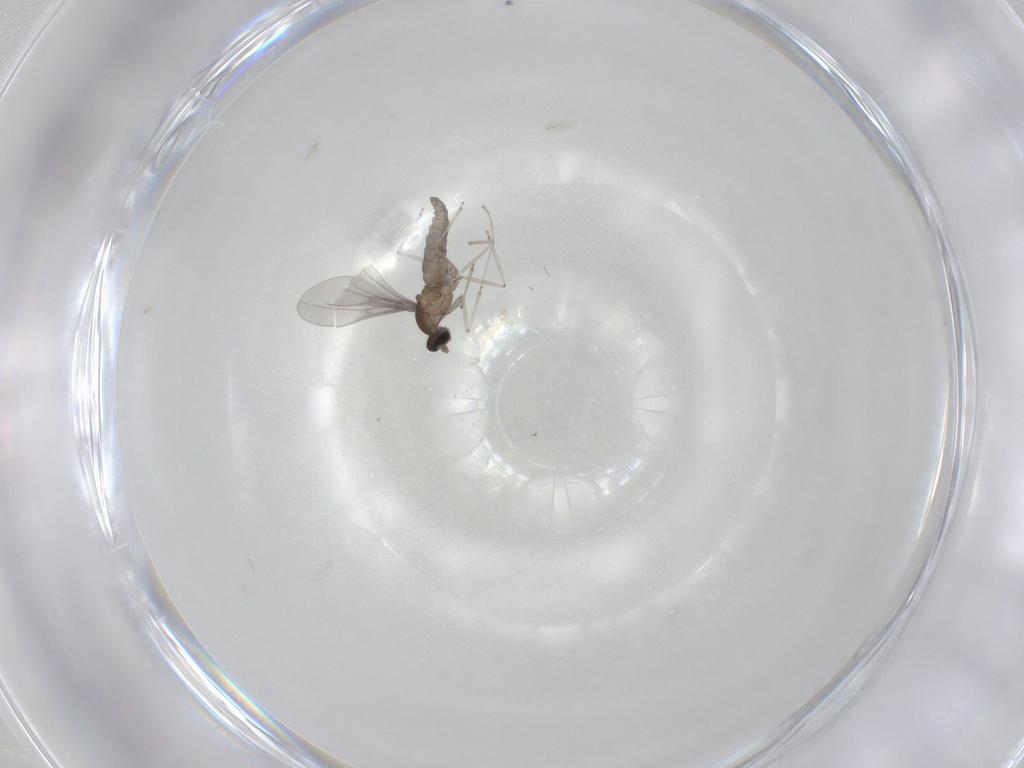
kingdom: Animalia
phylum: Arthropoda
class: Insecta
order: Diptera
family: Cecidomyiidae
